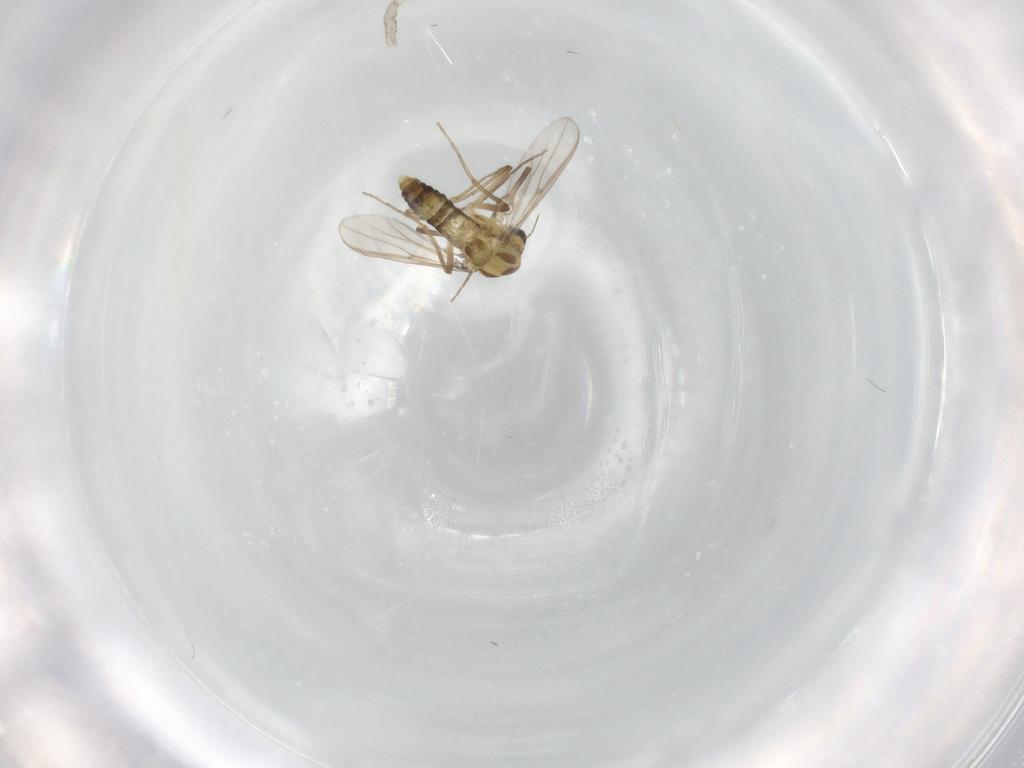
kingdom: Animalia
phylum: Arthropoda
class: Insecta
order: Diptera
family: Chironomidae
